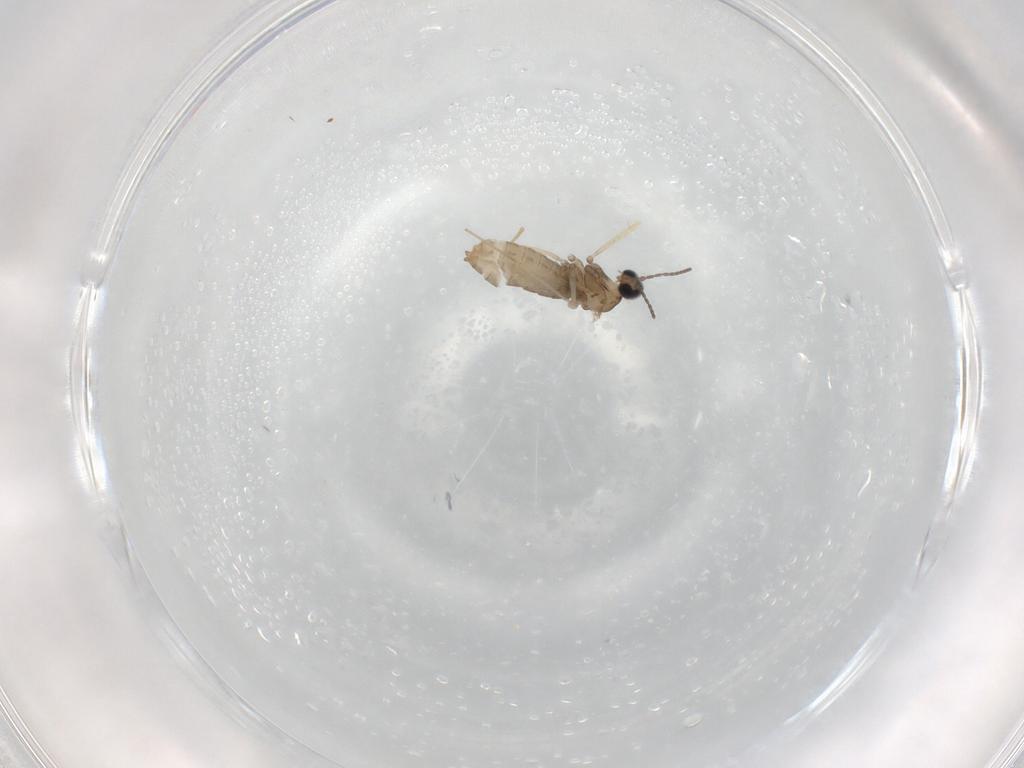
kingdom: Animalia
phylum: Arthropoda
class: Insecta
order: Diptera
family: Cecidomyiidae
